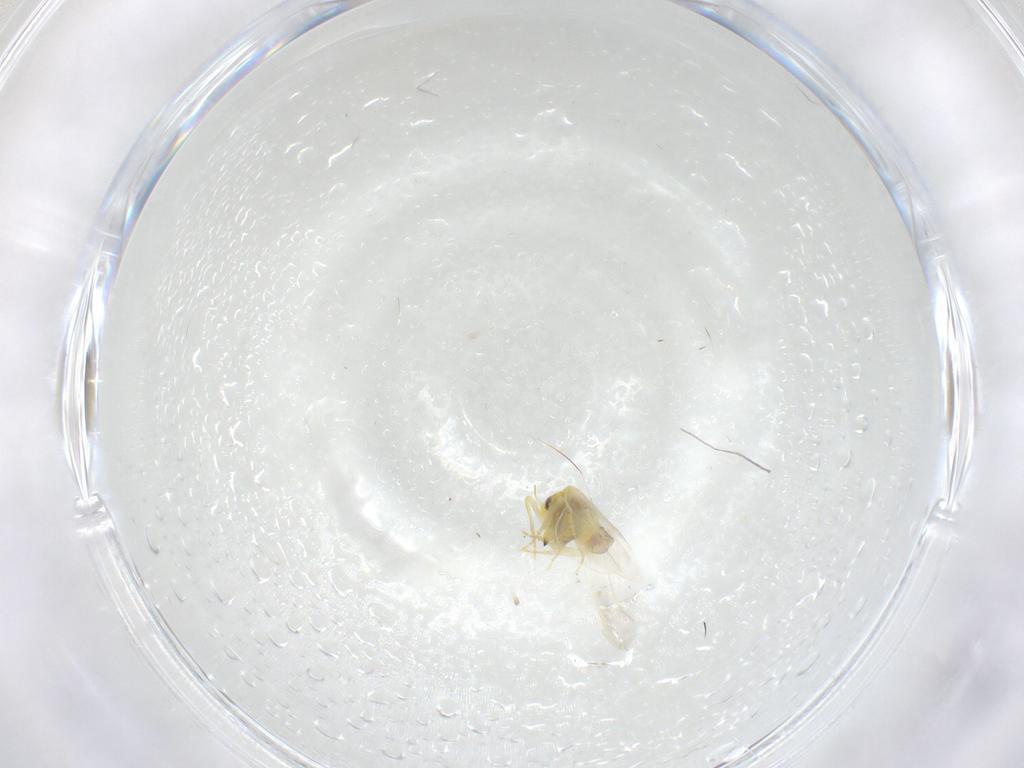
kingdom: Animalia
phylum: Arthropoda
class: Insecta
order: Hemiptera
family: Aleyrodidae
